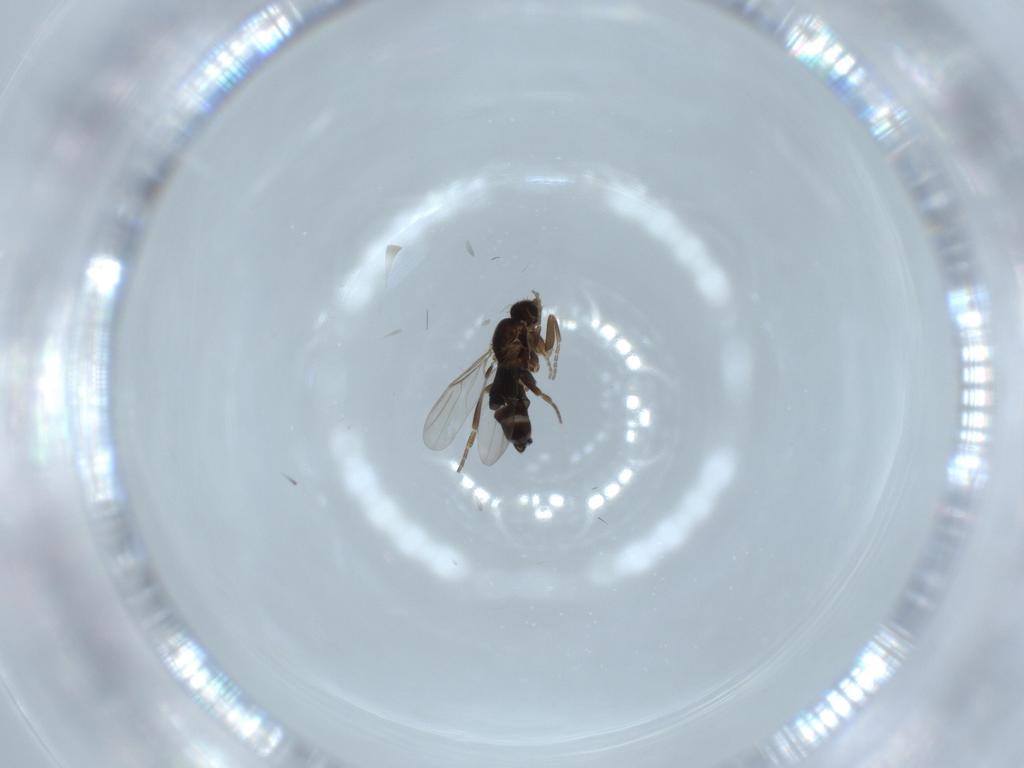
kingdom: Animalia
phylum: Arthropoda
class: Insecta
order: Diptera
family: Phoridae
